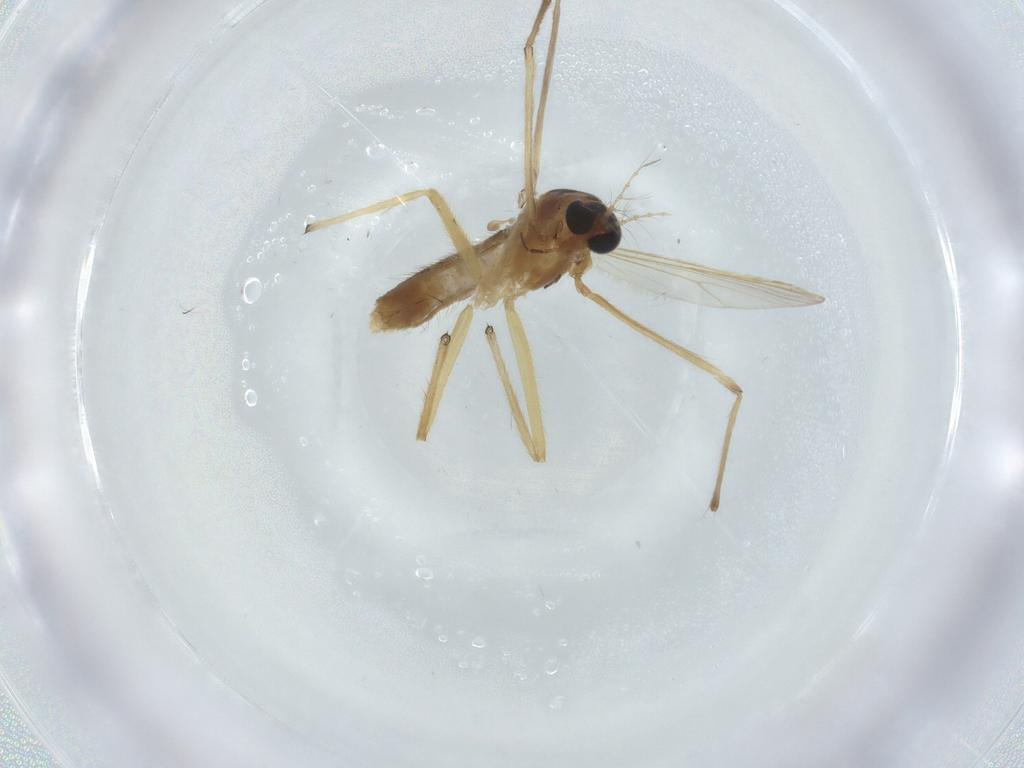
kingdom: Animalia
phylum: Arthropoda
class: Insecta
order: Diptera
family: Chironomidae
